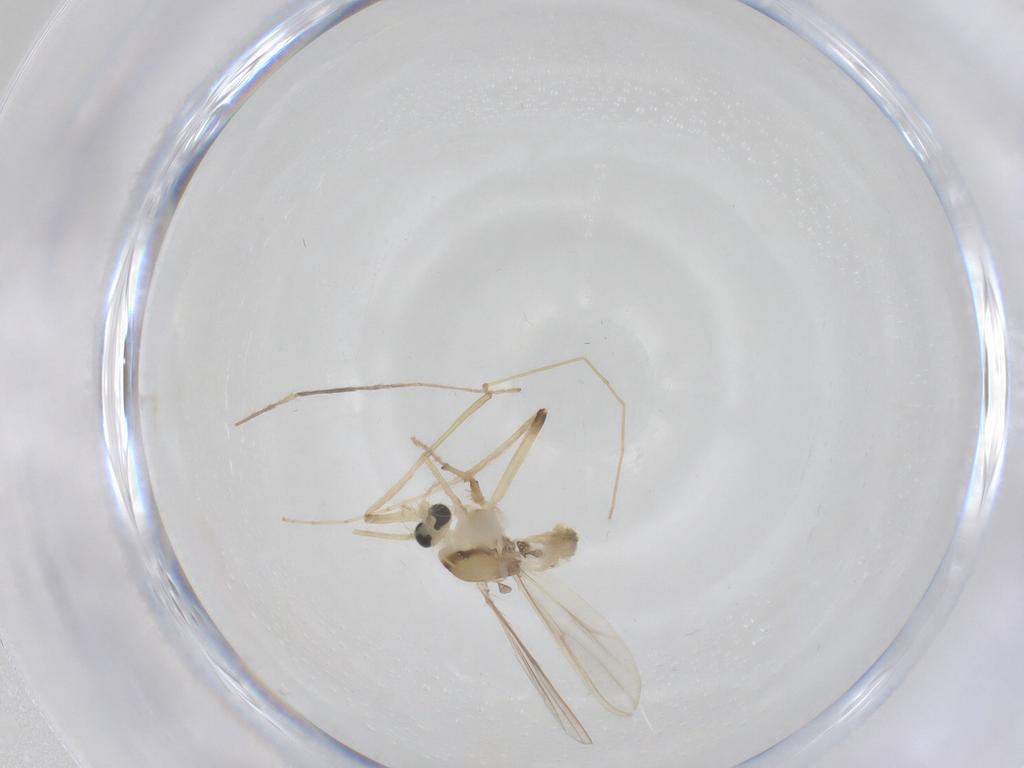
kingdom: Animalia
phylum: Arthropoda
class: Insecta
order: Diptera
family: Chironomidae
